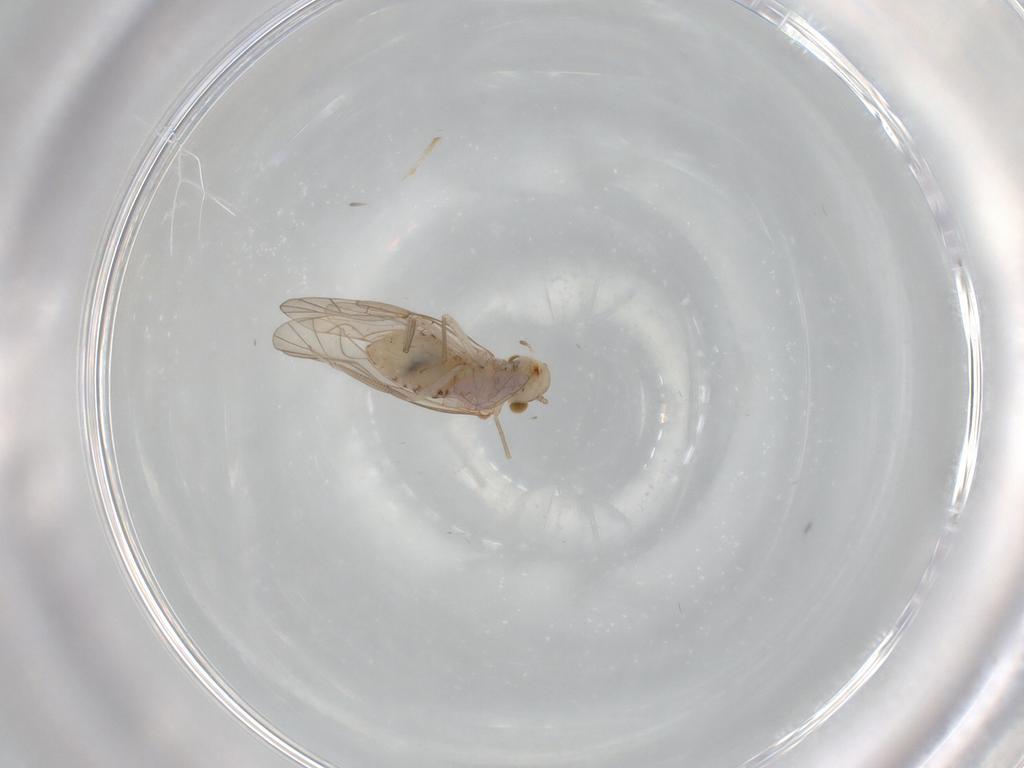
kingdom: Animalia
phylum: Arthropoda
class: Insecta
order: Psocodea
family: Lachesillidae
